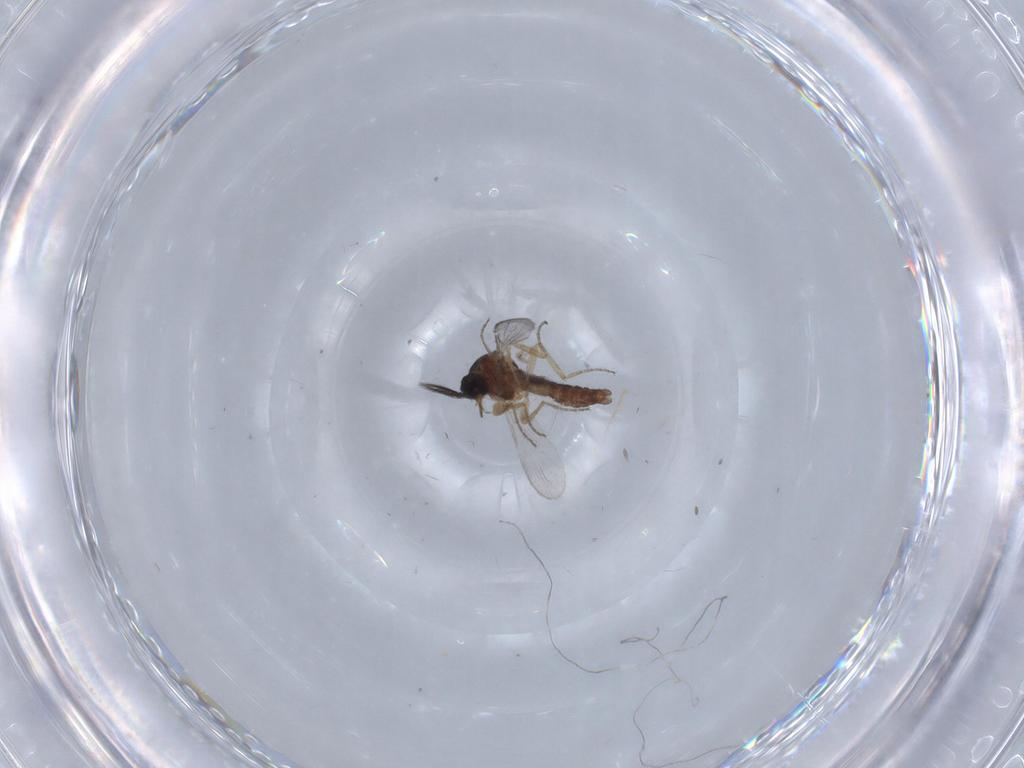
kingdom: Animalia
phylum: Arthropoda
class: Insecta
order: Diptera
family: Ceratopogonidae
